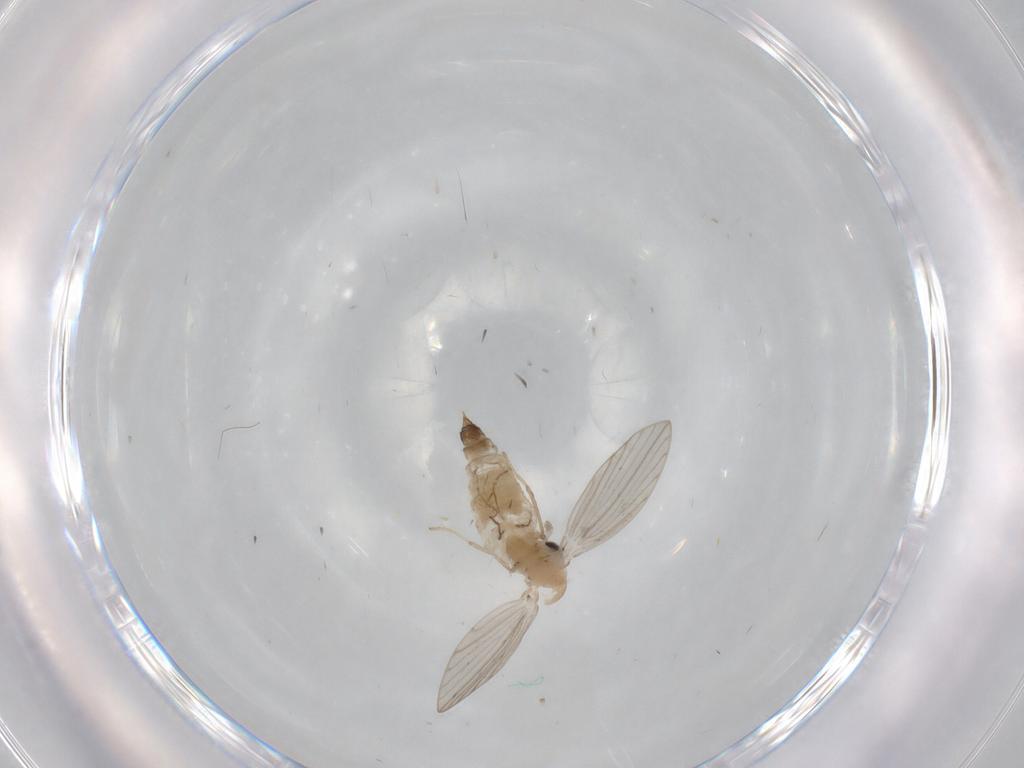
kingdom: Animalia
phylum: Arthropoda
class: Insecta
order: Diptera
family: Psychodidae
